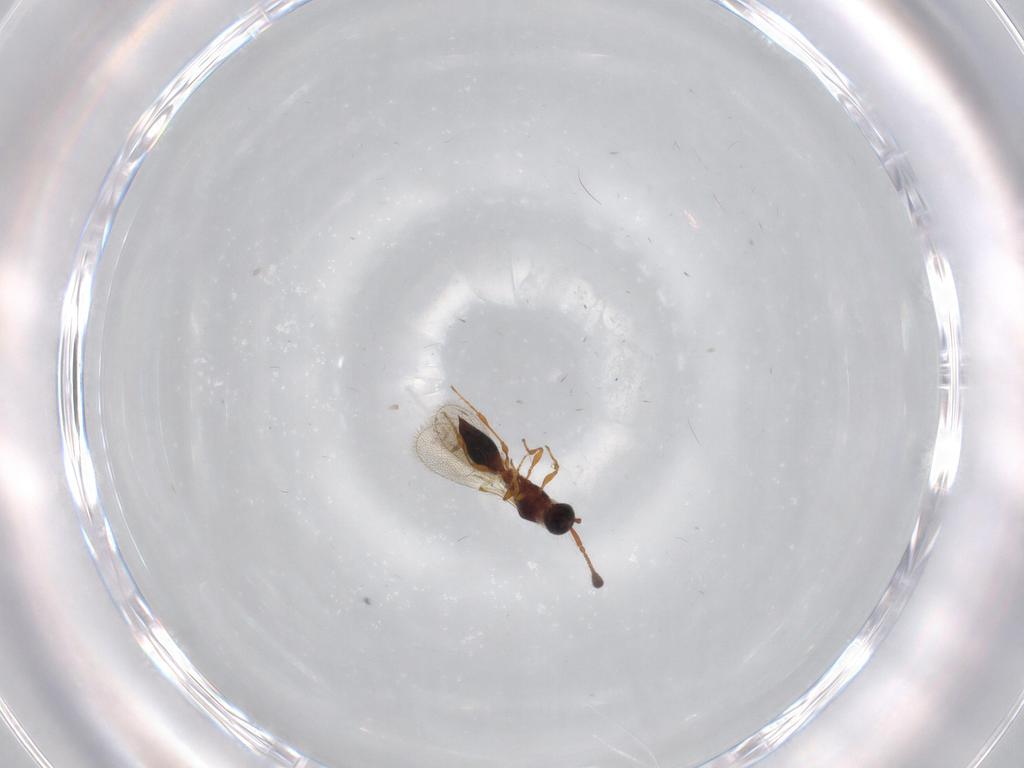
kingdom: Animalia
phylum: Arthropoda
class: Insecta
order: Hymenoptera
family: Diapriidae
